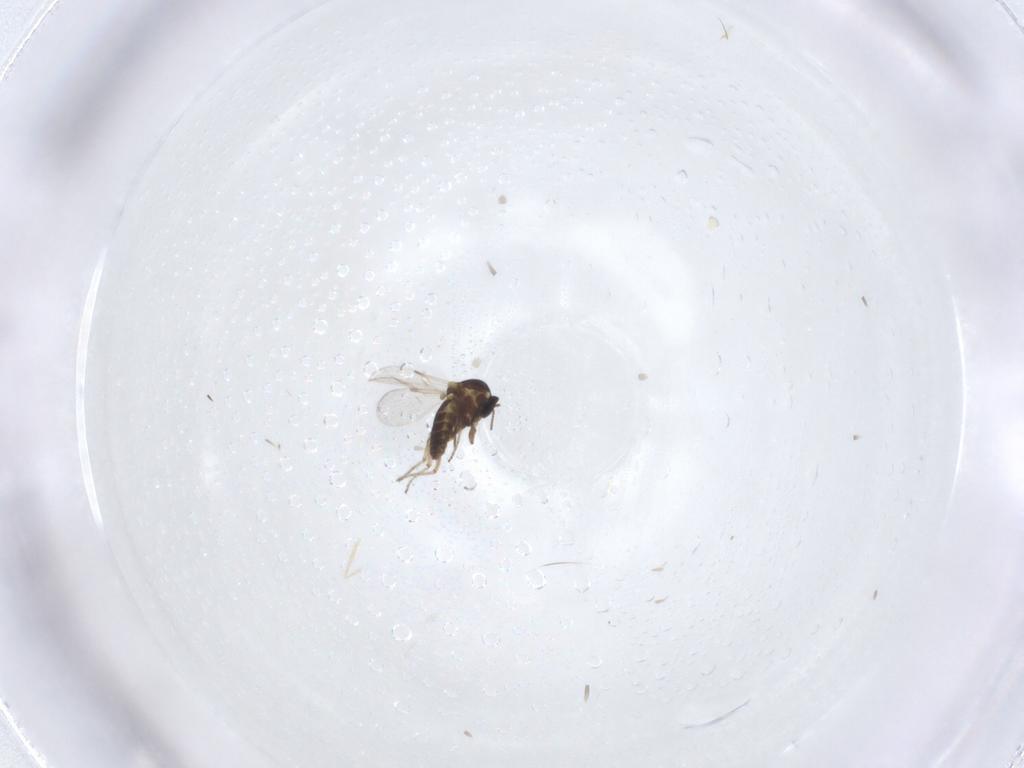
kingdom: Animalia
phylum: Arthropoda
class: Insecta
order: Diptera
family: Ceratopogonidae
